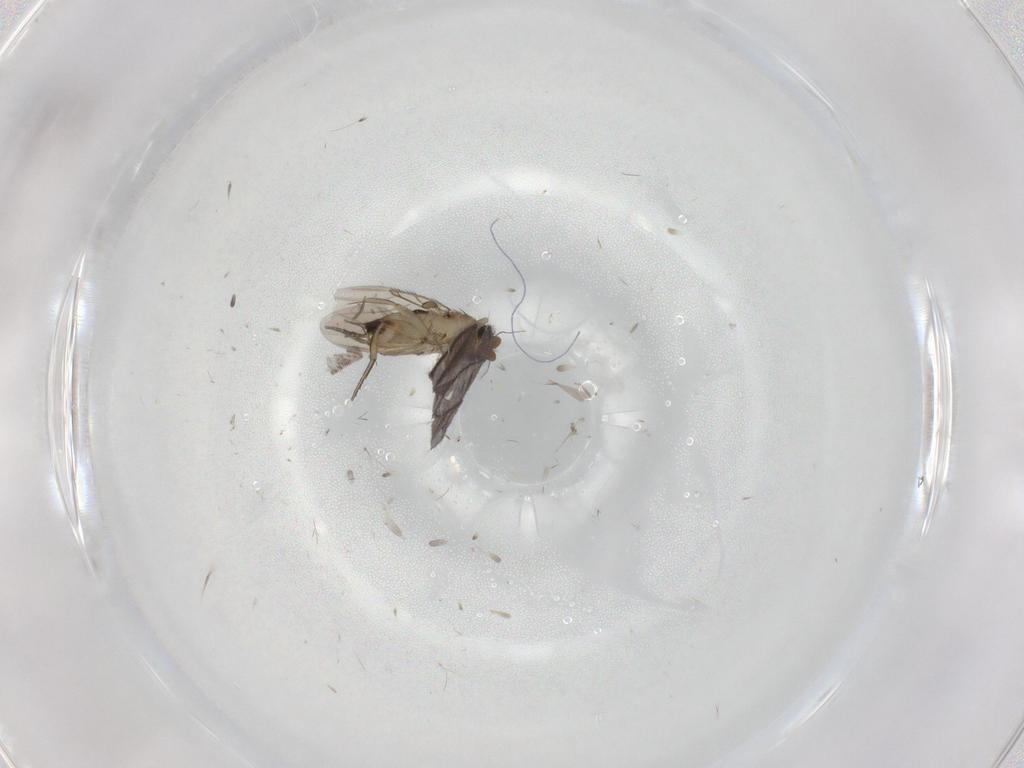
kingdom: Animalia
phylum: Arthropoda
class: Insecta
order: Diptera
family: Phoridae
